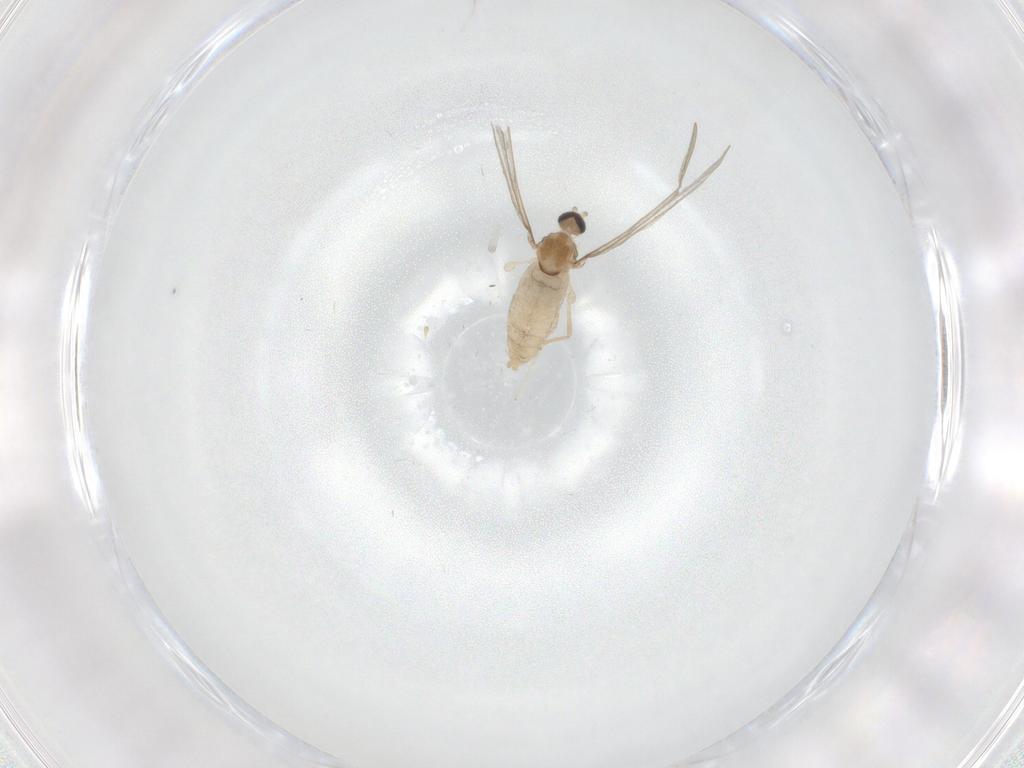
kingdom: Animalia
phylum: Arthropoda
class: Insecta
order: Diptera
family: Cecidomyiidae
